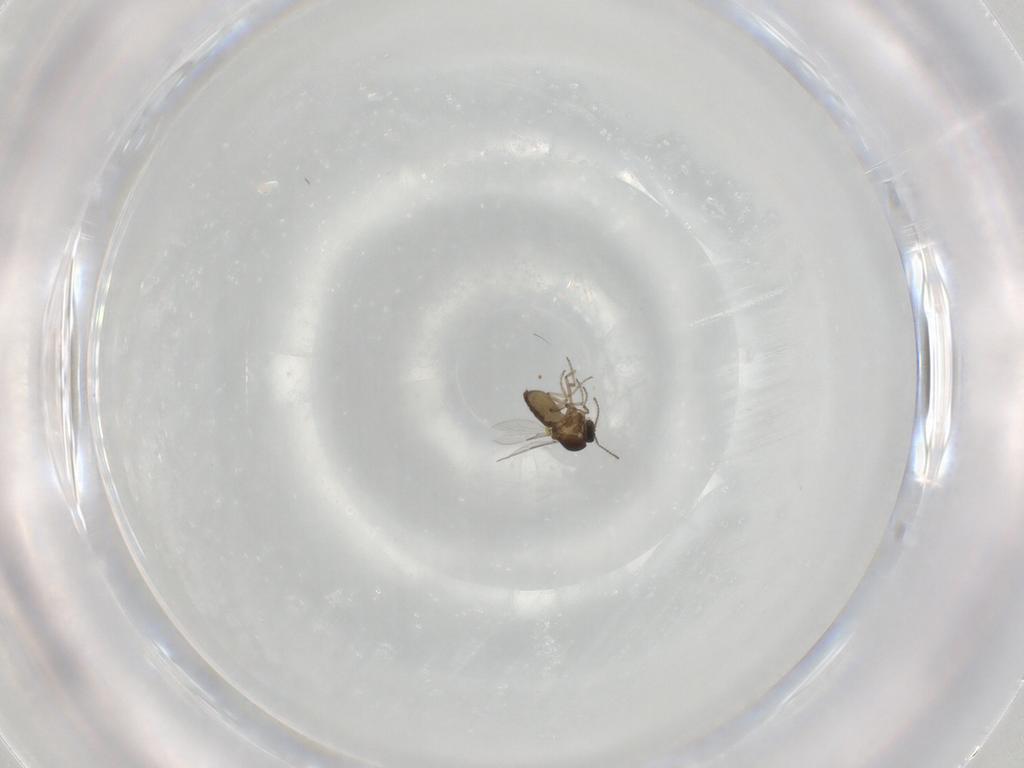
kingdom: Animalia
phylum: Arthropoda
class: Insecta
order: Diptera
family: Ceratopogonidae
